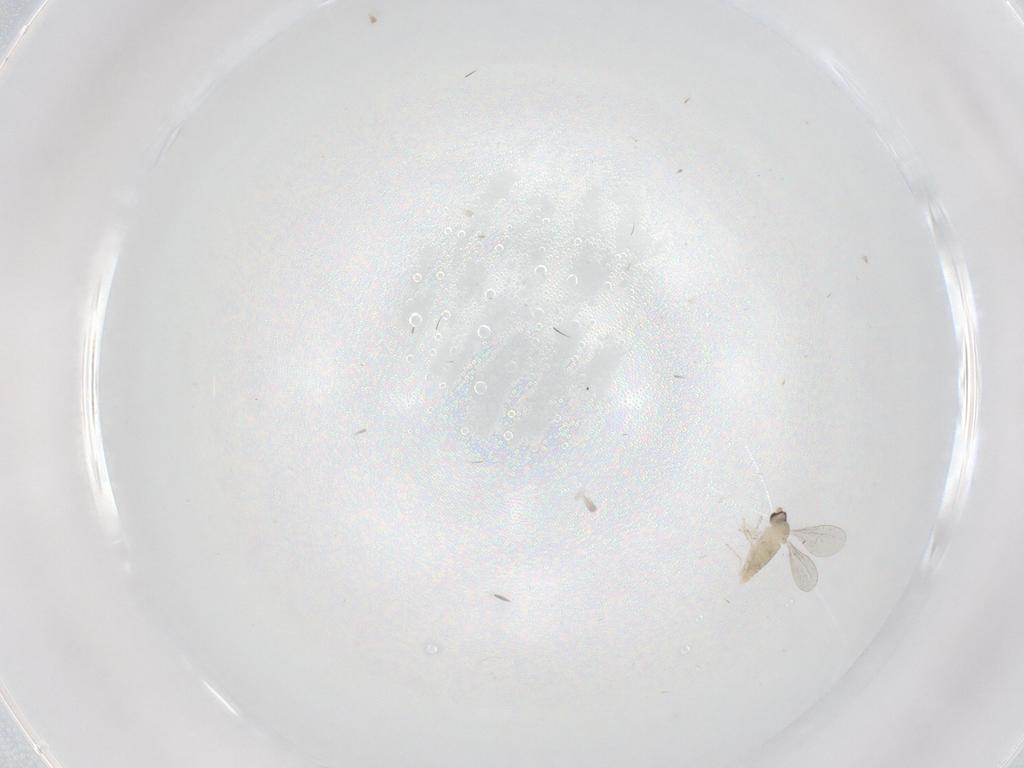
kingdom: Animalia
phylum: Arthropoda
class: Insecta
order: Diptera
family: Cecidomyiidae
